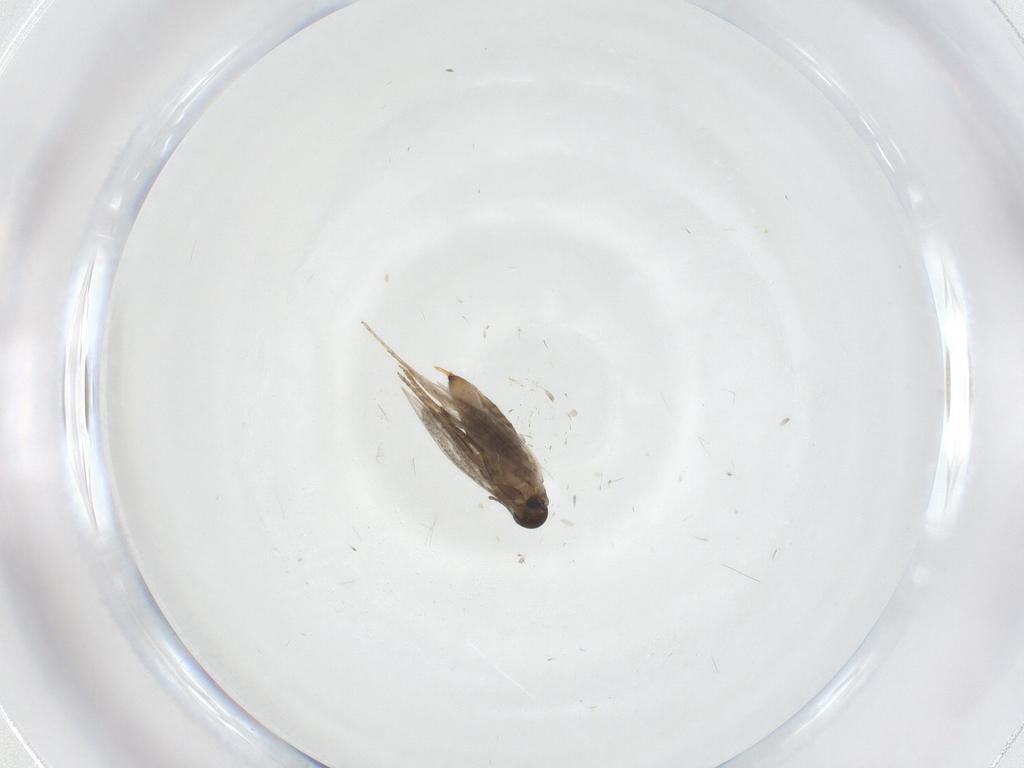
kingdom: Animalia
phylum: Arthropoda
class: Insecta
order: Lepidoptera
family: Heliozelidae
